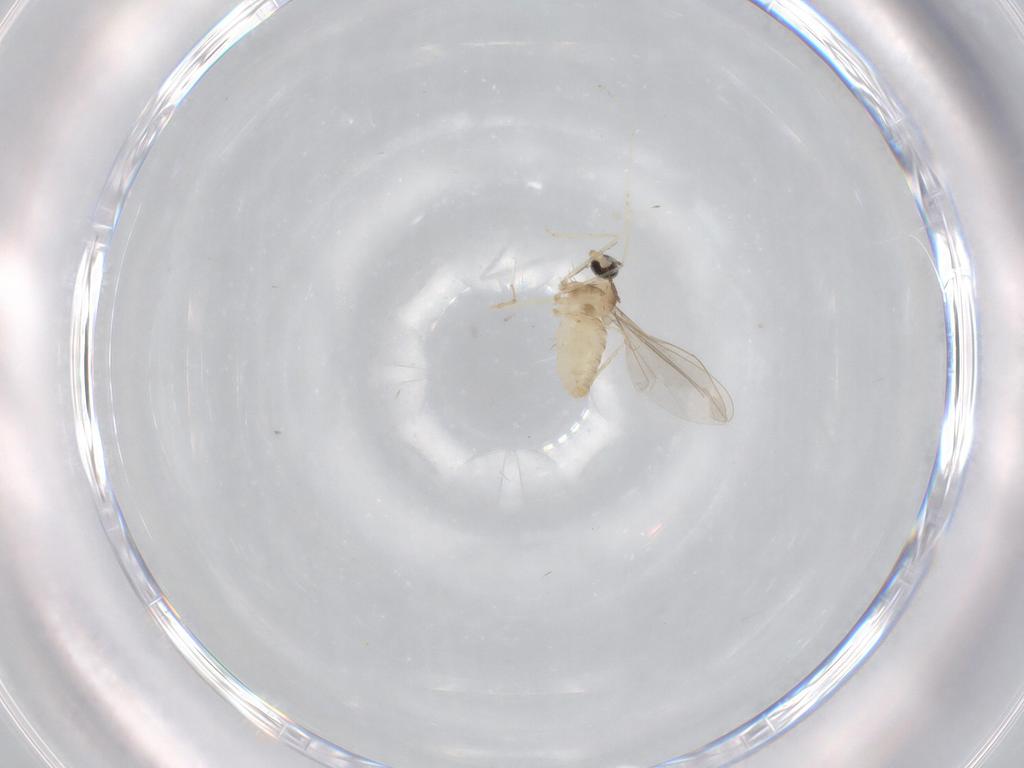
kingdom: Animalia
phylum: Arthropoda
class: Insecta
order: Diptera
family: Cecidomyiidae
